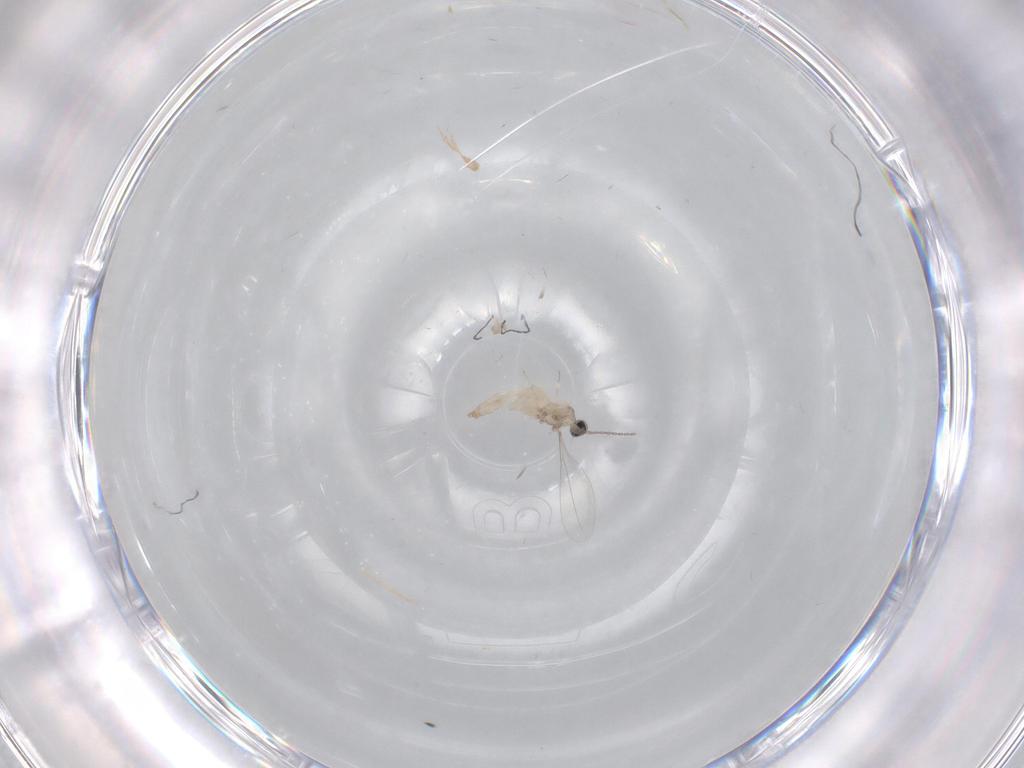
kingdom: Animalia
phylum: Arthropoda
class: Insecta
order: Diptera
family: Cecidomyiidae
